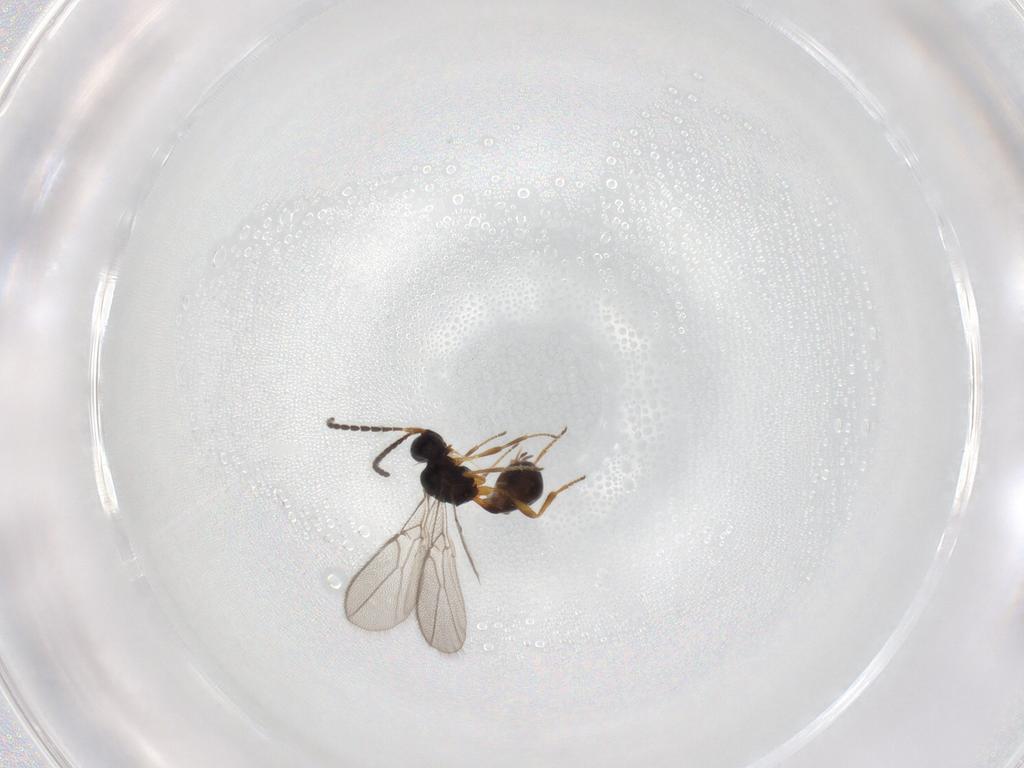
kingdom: Animalia
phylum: Arthropoda
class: Insecta
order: Hymenoptera
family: Braconidae
